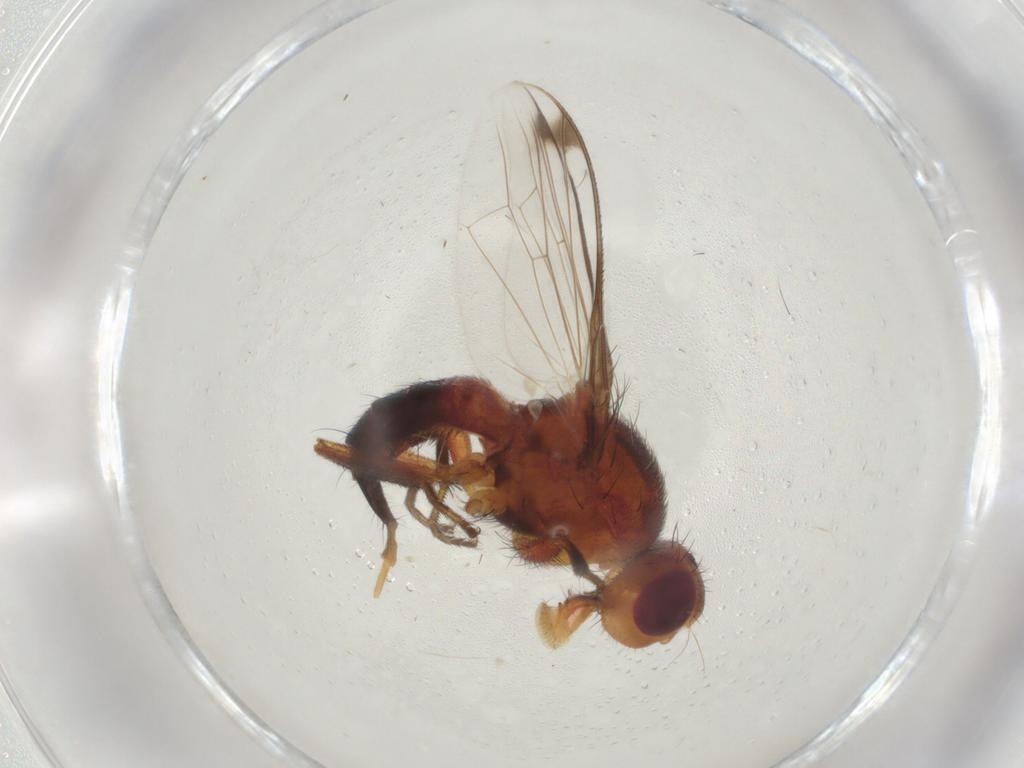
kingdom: Animalia
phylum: Arthropoda
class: Insecta
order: Diptera
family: Richardiidae
